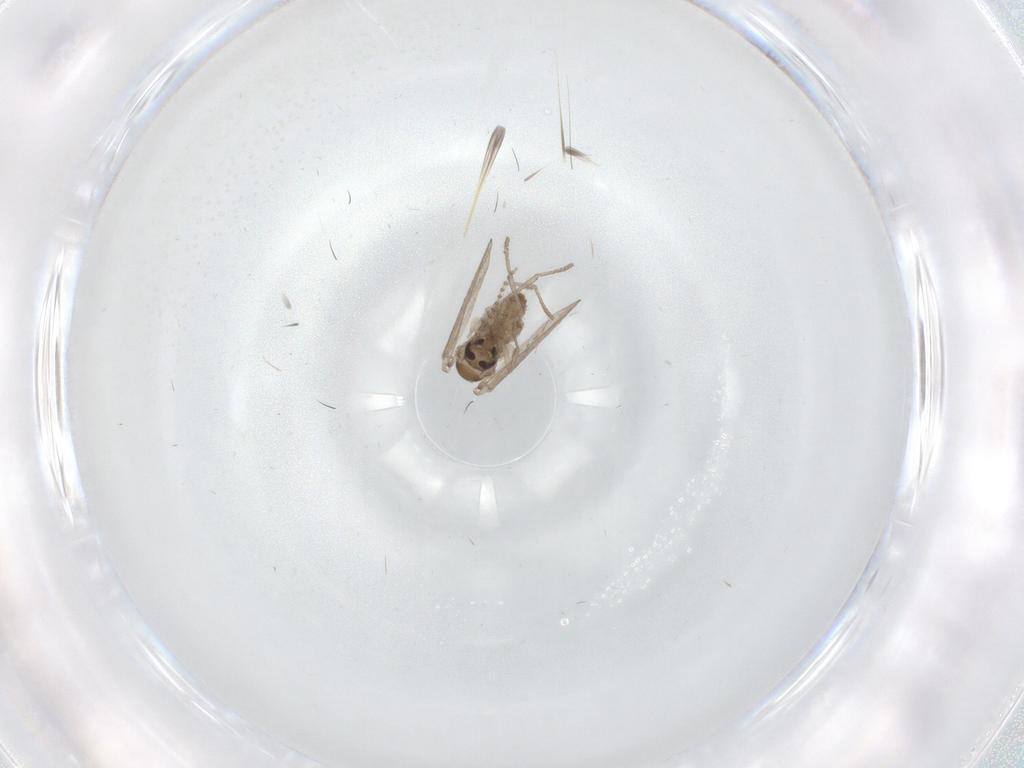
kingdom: Animalia
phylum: Arthropoda
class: Insecta
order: Diptera
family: Psychodidae
